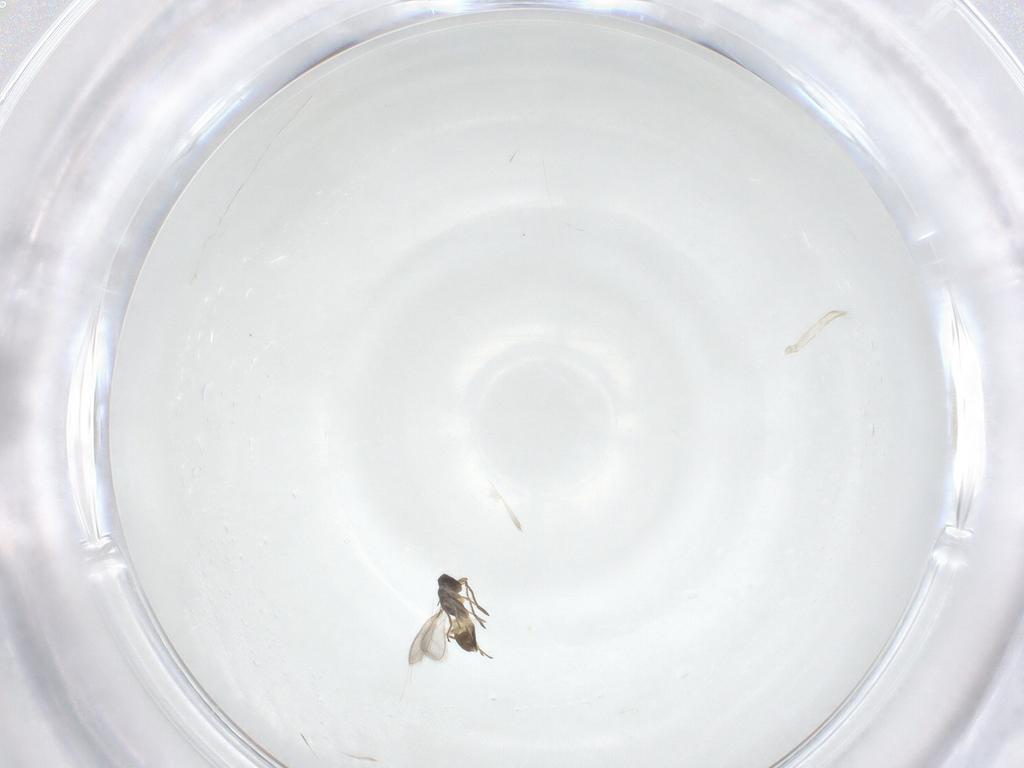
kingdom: Animalia
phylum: Arthropoda
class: Insecta
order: Hymenoptera
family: Mymaridae
